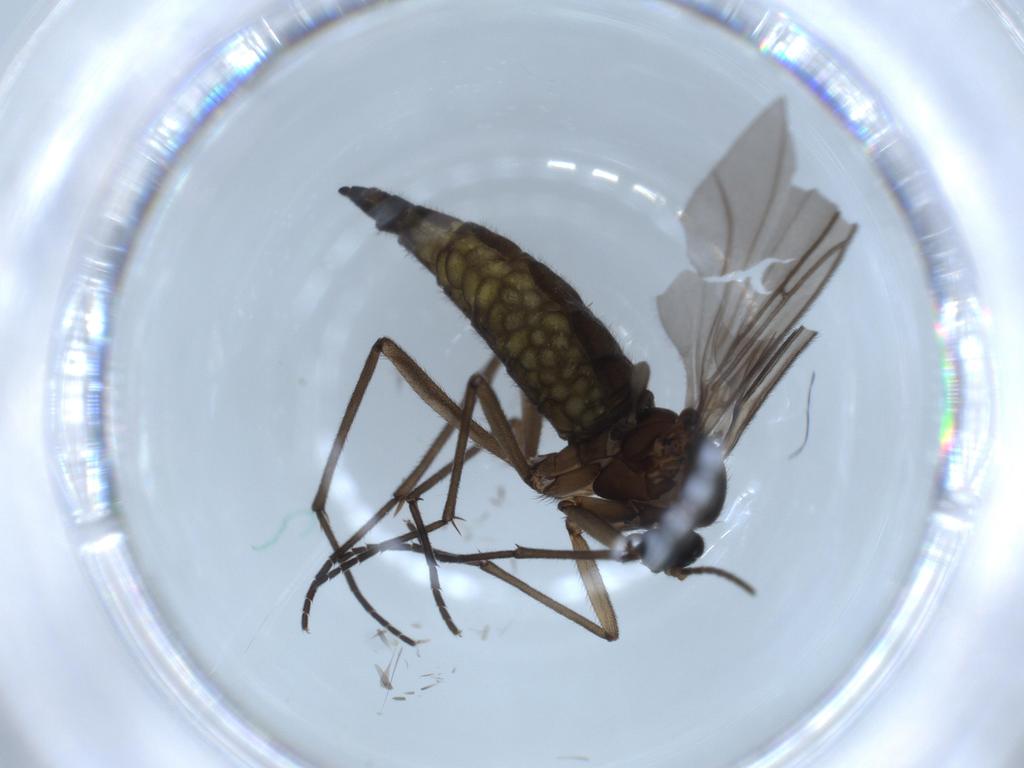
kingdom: Animalia
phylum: Arthropoda
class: Insecta
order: Diptera
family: Sciaridae
